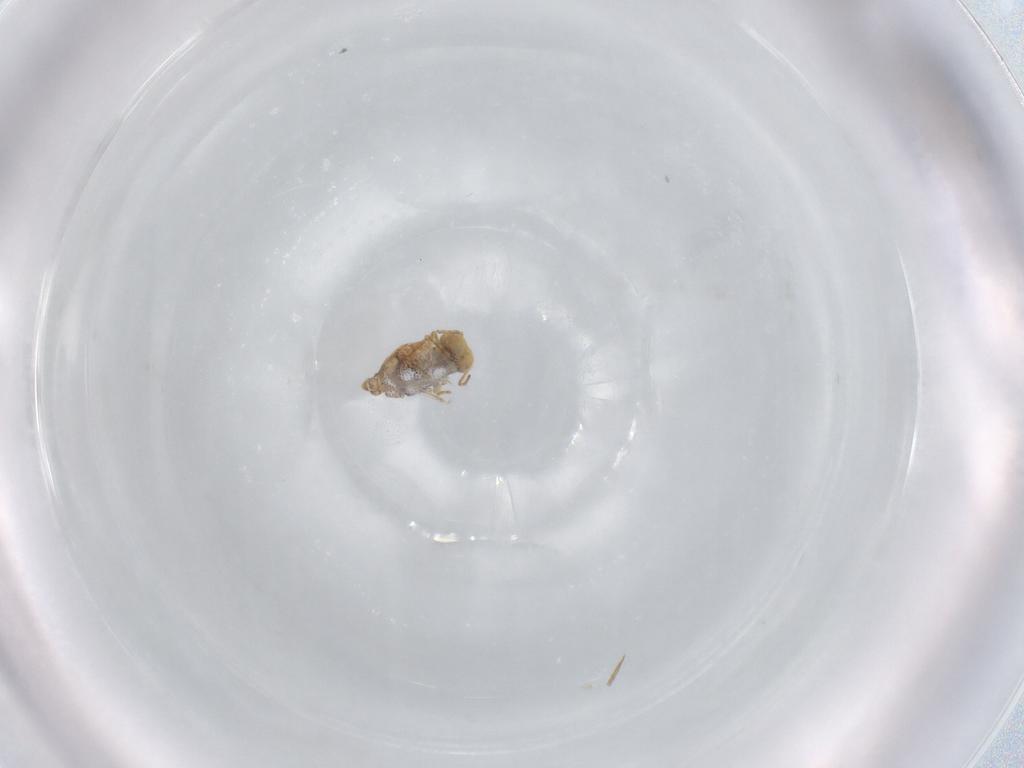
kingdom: Animalia
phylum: Arthropoda
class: Collembola
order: Symphypleona
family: Bourletiellidae
